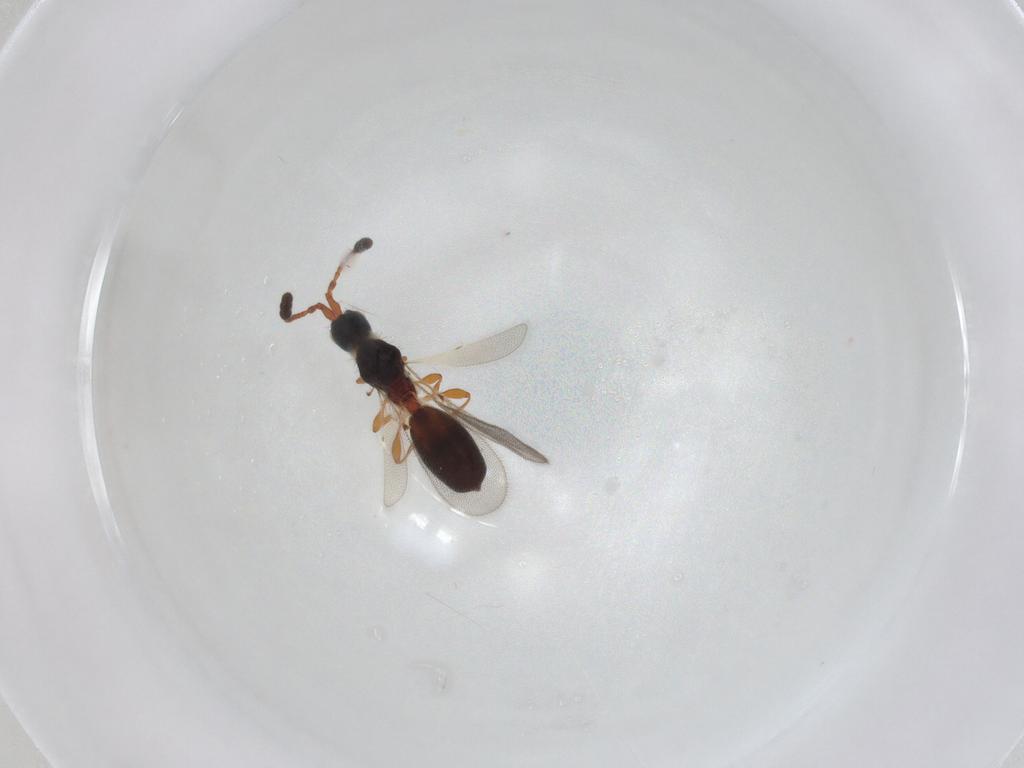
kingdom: Animalia
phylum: Arthropoda
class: Insecta
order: Hymenoptera
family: Diapriidae
